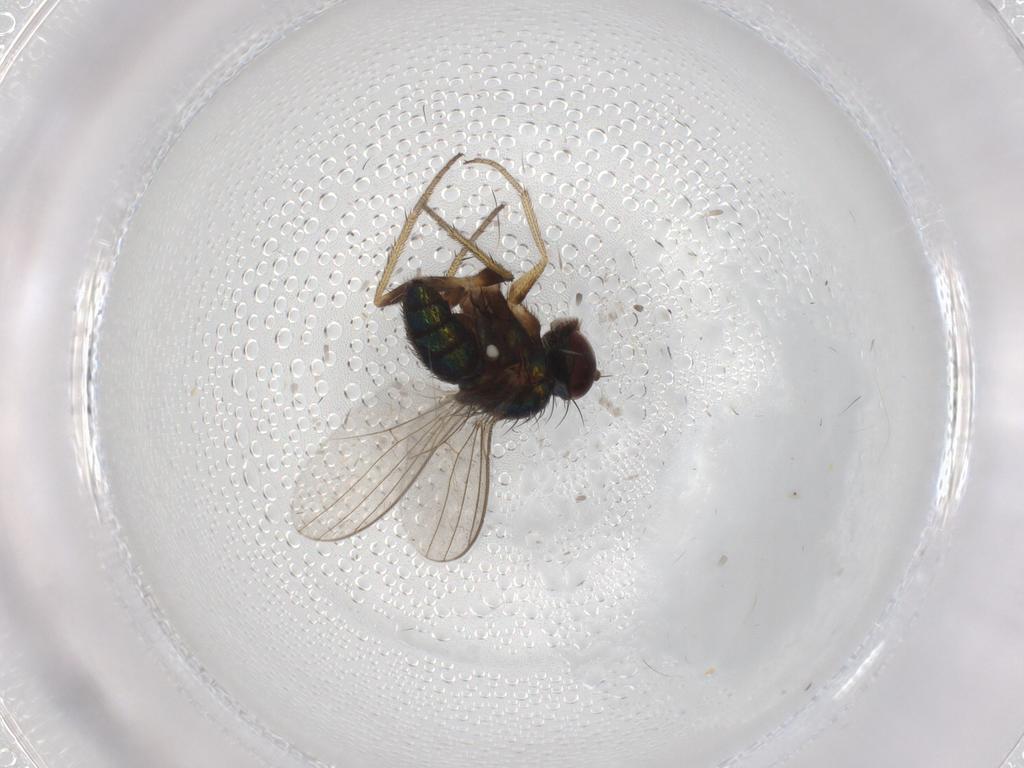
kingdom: Animalia
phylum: Arthropoda
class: Insecta
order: Diptera
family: Dolichopodidae
